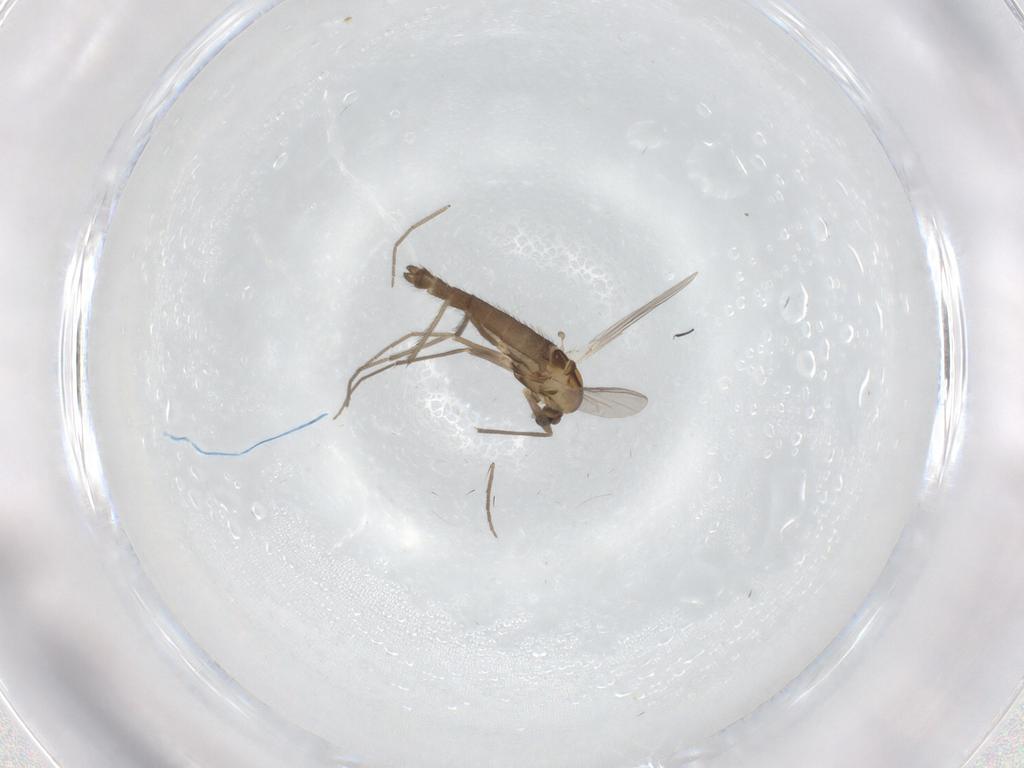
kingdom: Animalia
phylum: Arthropoda
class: Insecta
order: Diptera
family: Chironomidae
